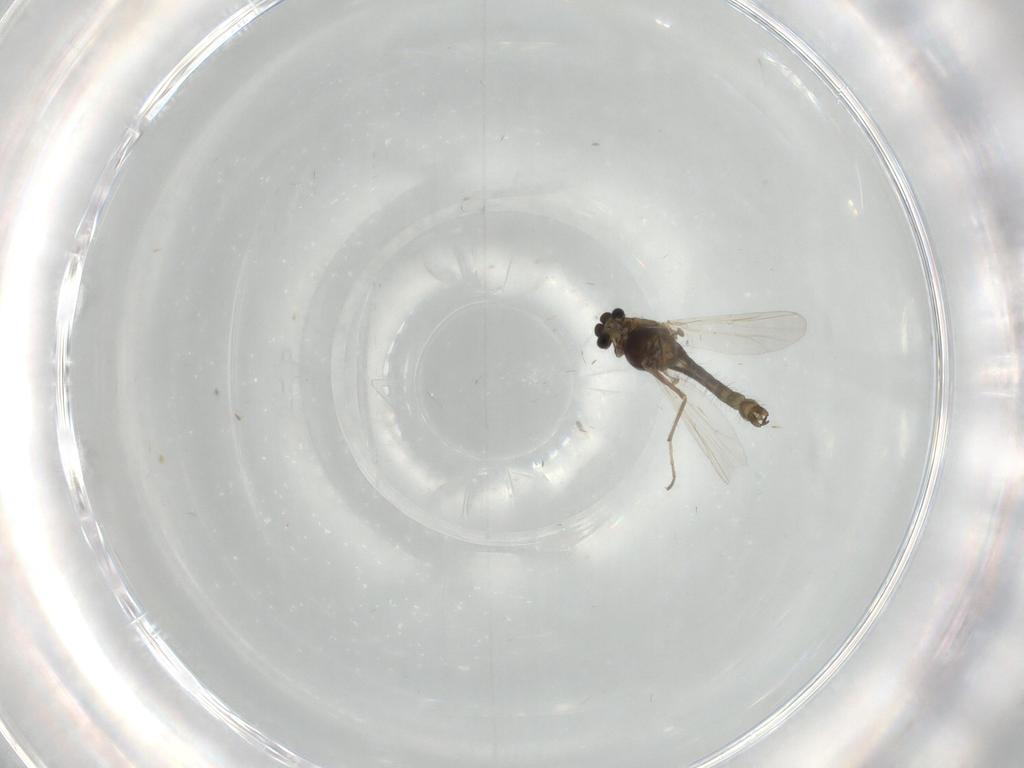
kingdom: Animalia
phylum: Arthropoda
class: Insecta
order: Diptera
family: Chironomidae
